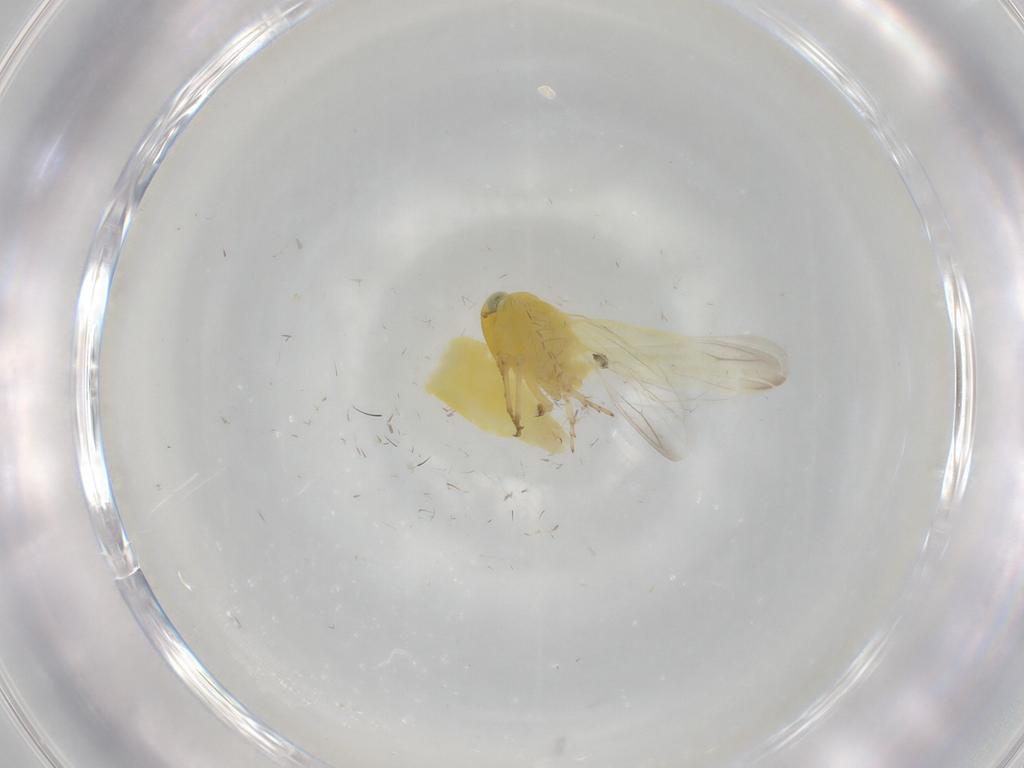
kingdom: Animalia
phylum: Arthropoda
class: Insecta
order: Hemiptera
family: Cicadellidae
